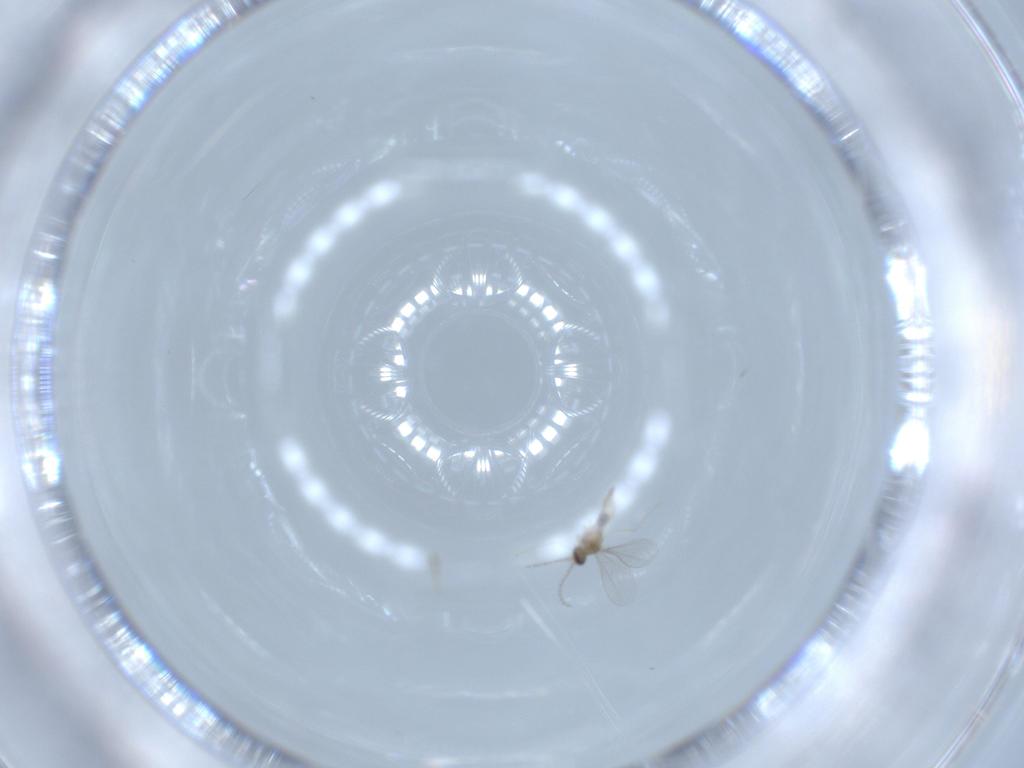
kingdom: Animalia
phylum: Arthropoda
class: Insecta
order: Diptera
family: Cecidomyiidae
